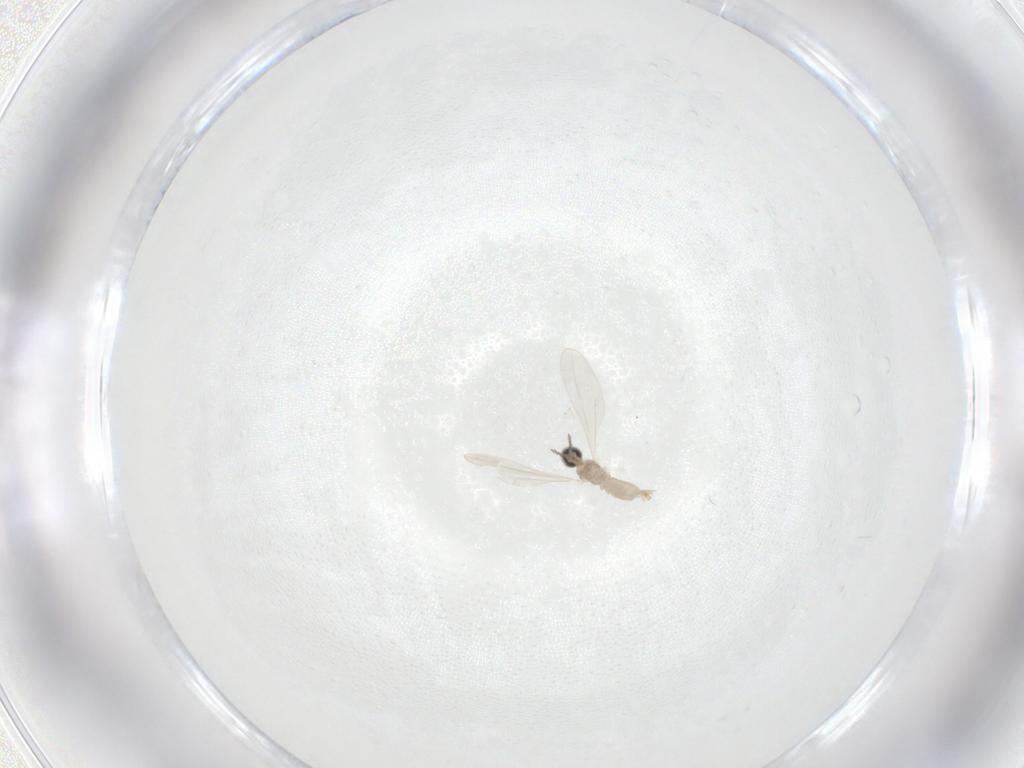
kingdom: Animalia
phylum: Arthropoda
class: Insecta
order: Diptera
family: Cecidomyiidae
